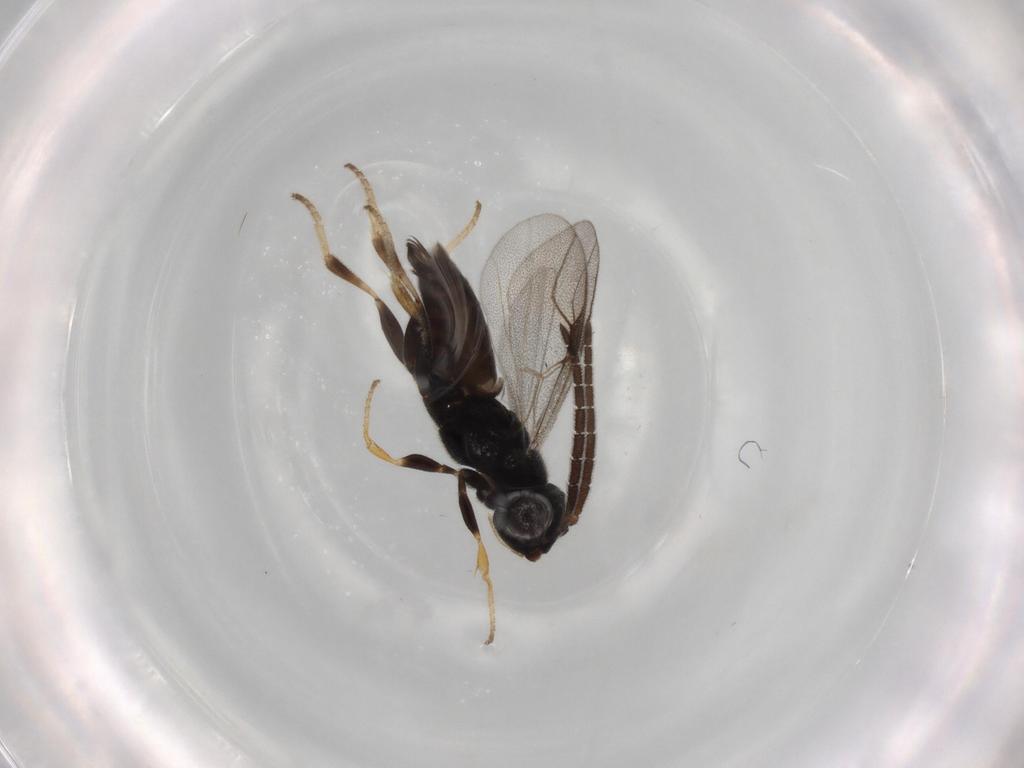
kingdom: Animalia
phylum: Arthropoda
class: Insecta
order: Hymenoptera
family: Dryinidae
